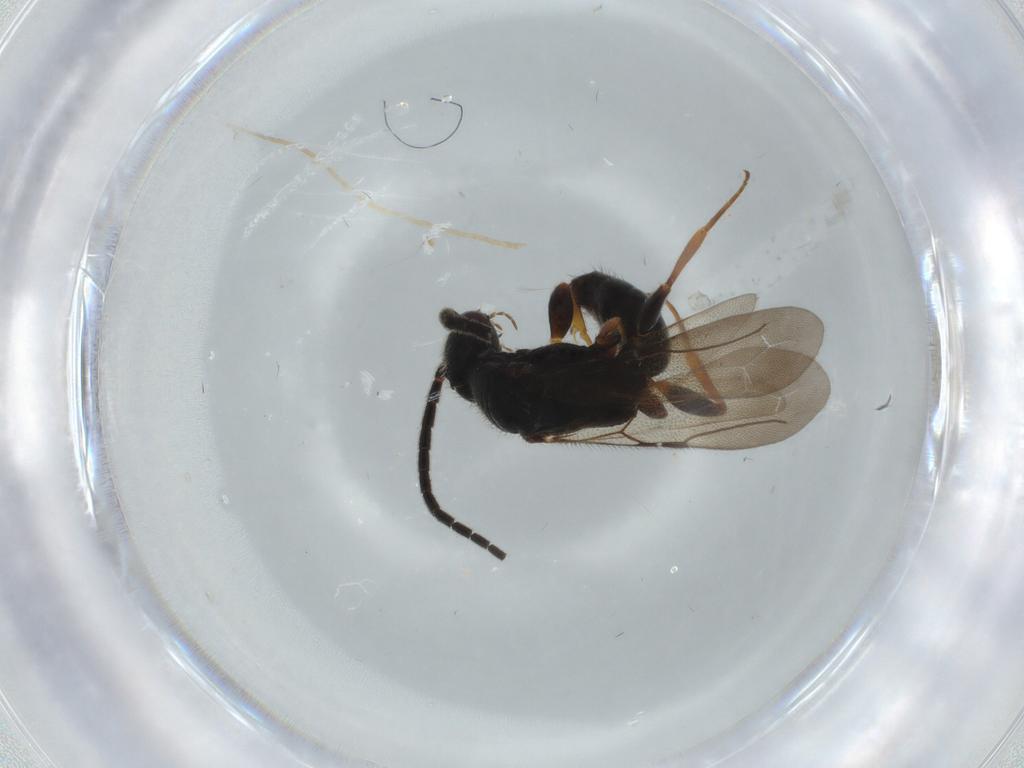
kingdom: Animalia
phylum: Arthropoda
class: Insecta
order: Hymenoptera
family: Bethylidae
